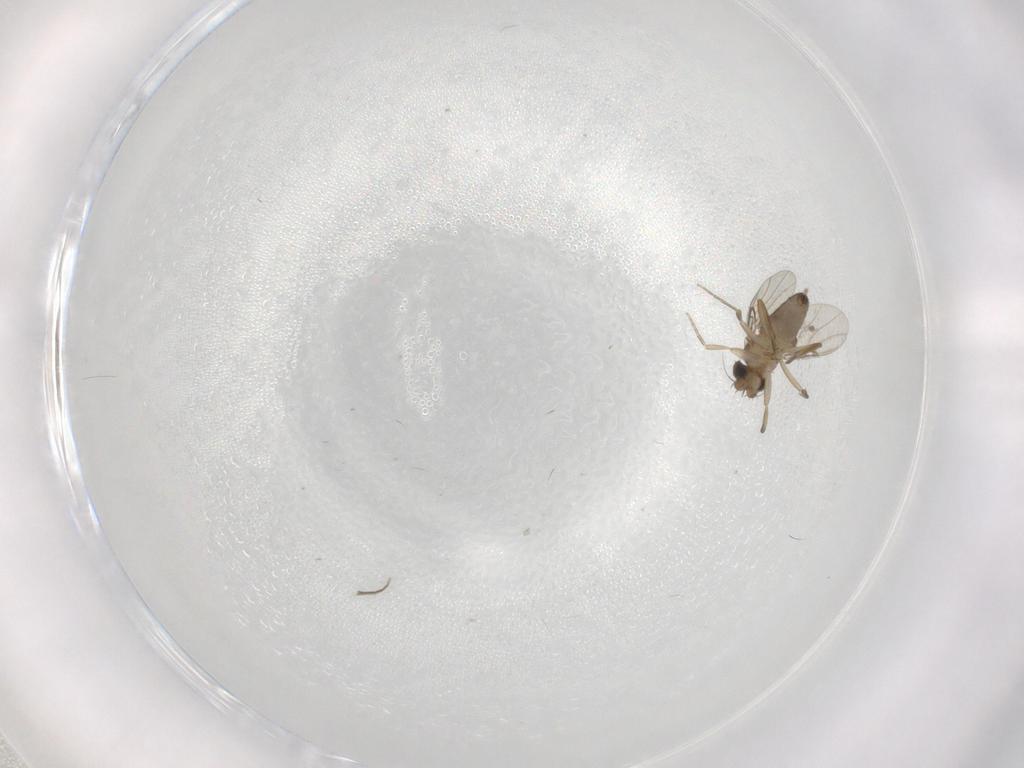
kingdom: Animalia
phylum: Arthropoda
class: Insecta
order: Diptera
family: Phoridae
